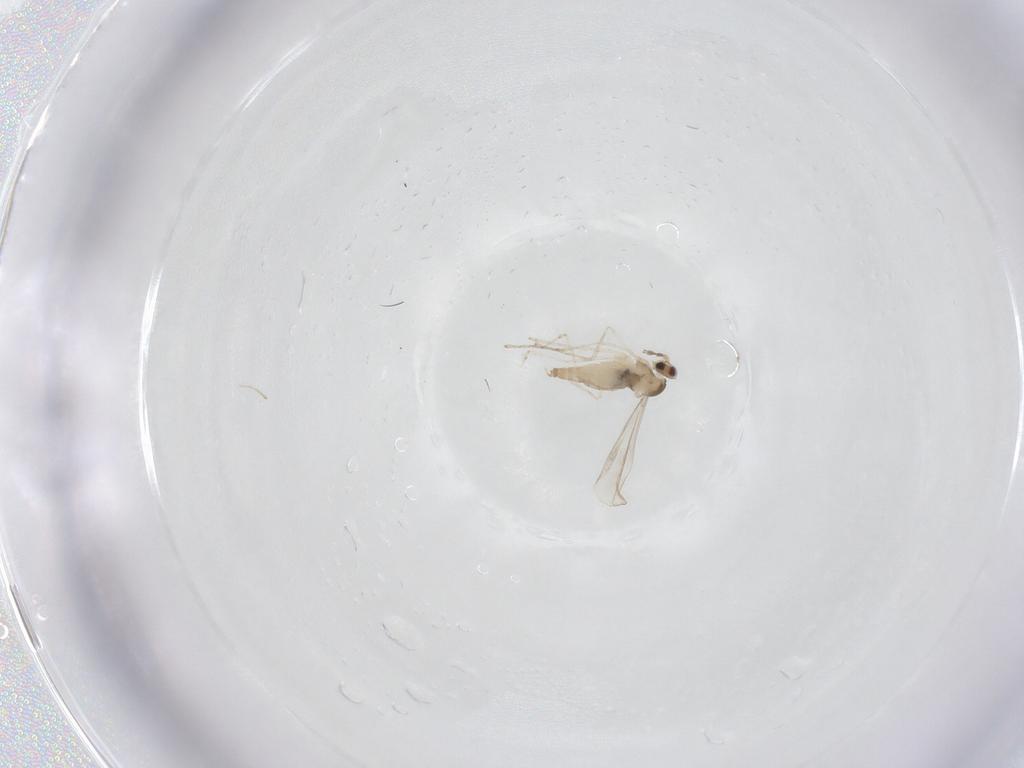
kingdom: Animalia
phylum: Arthropoda
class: Insecta
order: Diptera
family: Cecidomyiidae
